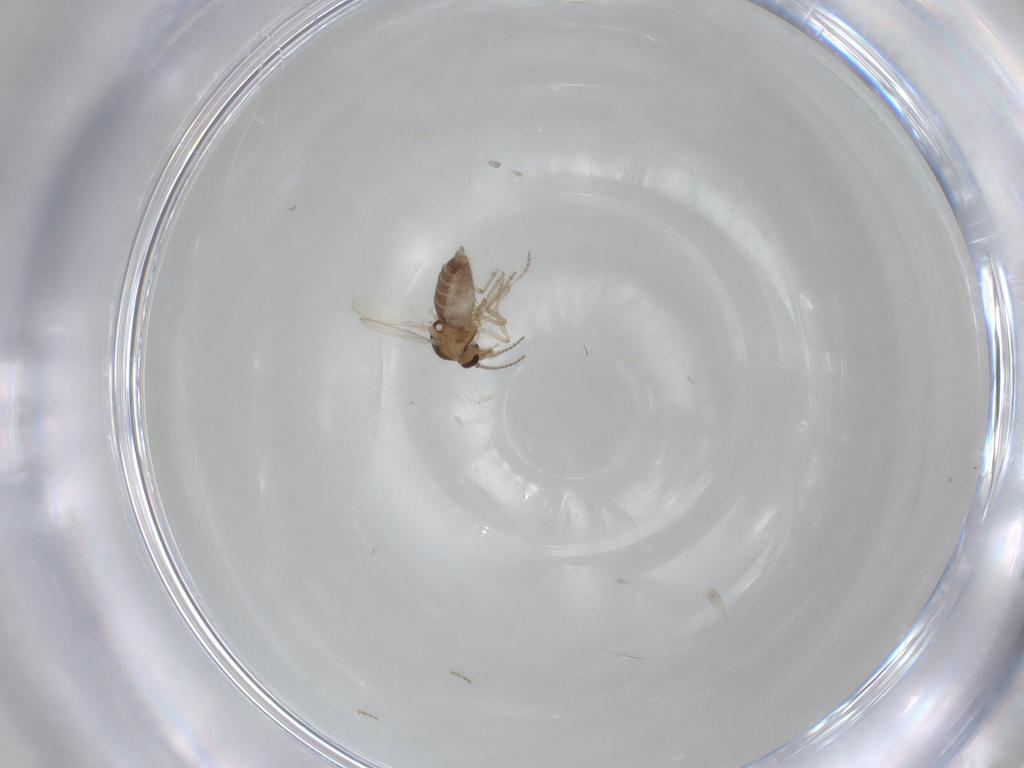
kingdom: Animalia
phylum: Arthropoda
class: Insecta
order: Diptera
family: Ceratopogonidae
